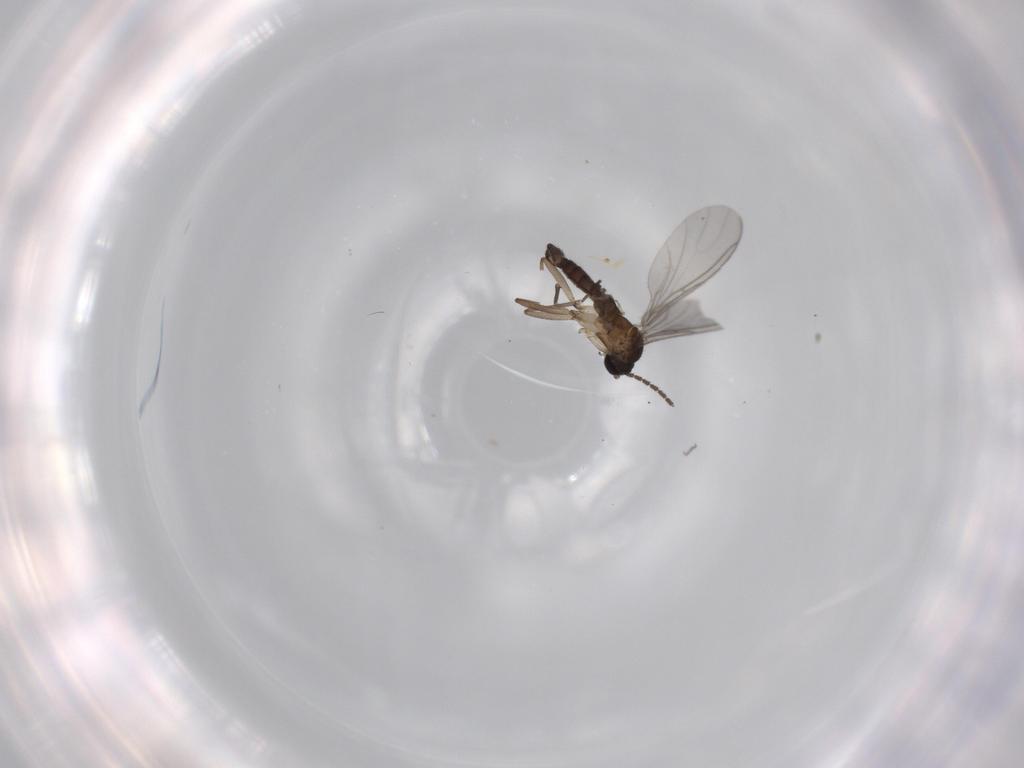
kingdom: Animalia
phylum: Arthropoda
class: Insecta
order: Diptera
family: Sciaridae
